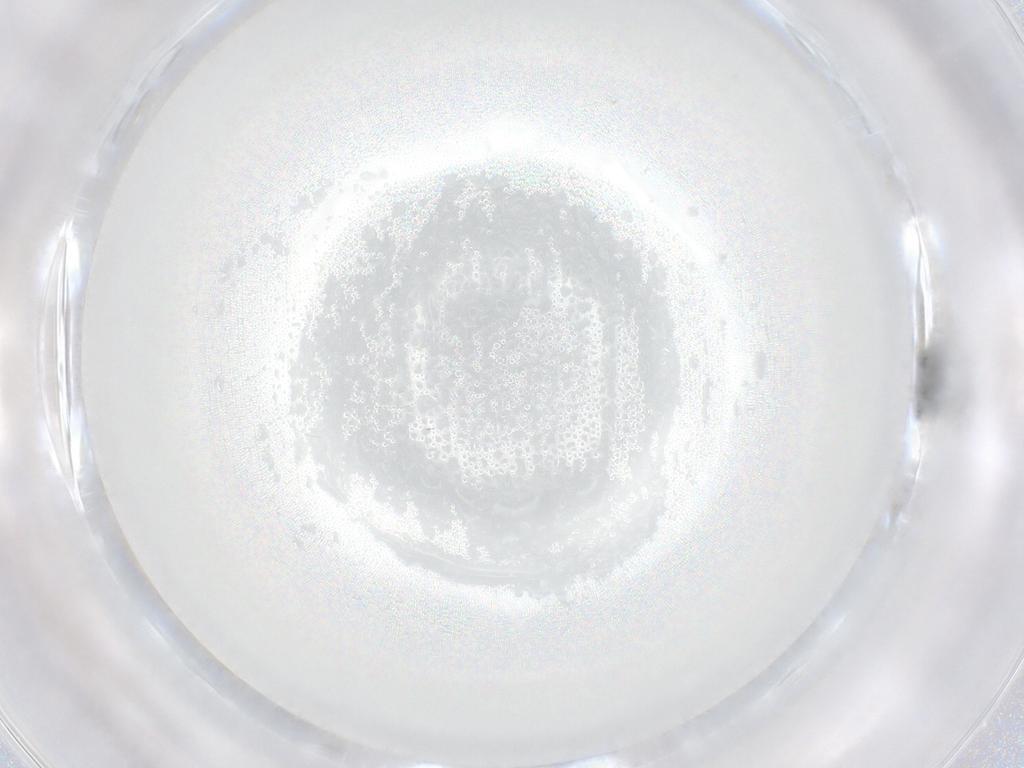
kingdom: Animalia
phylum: Arthropoda
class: Insecta
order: Diptera
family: Chironomidae
